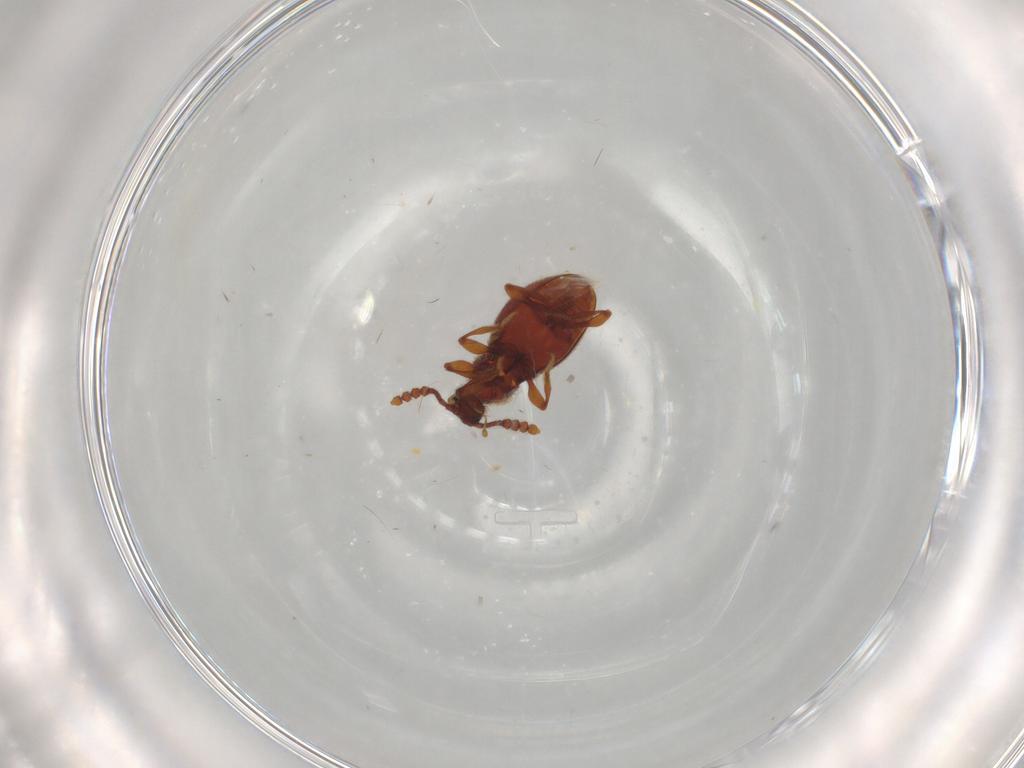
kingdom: Animalia
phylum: Arthropoda
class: Insecta
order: Coleoptera
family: Staphylinidae
